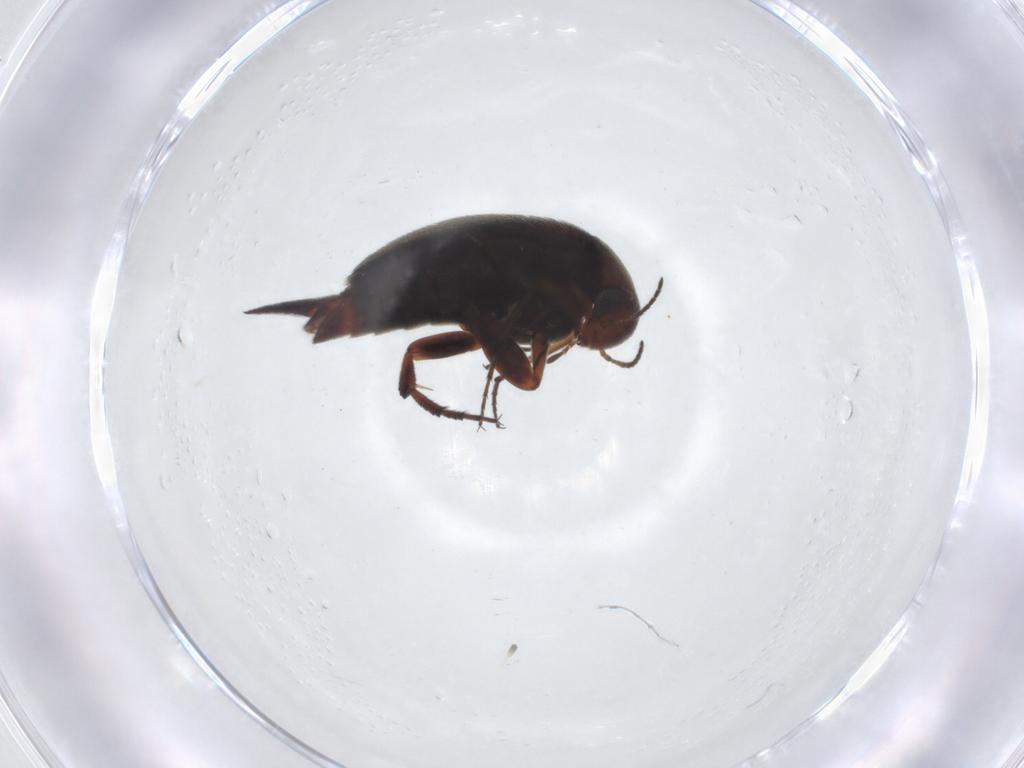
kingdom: Animalia
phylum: Arthropoda
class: Insecta
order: Coleoptera
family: Mordellidae
